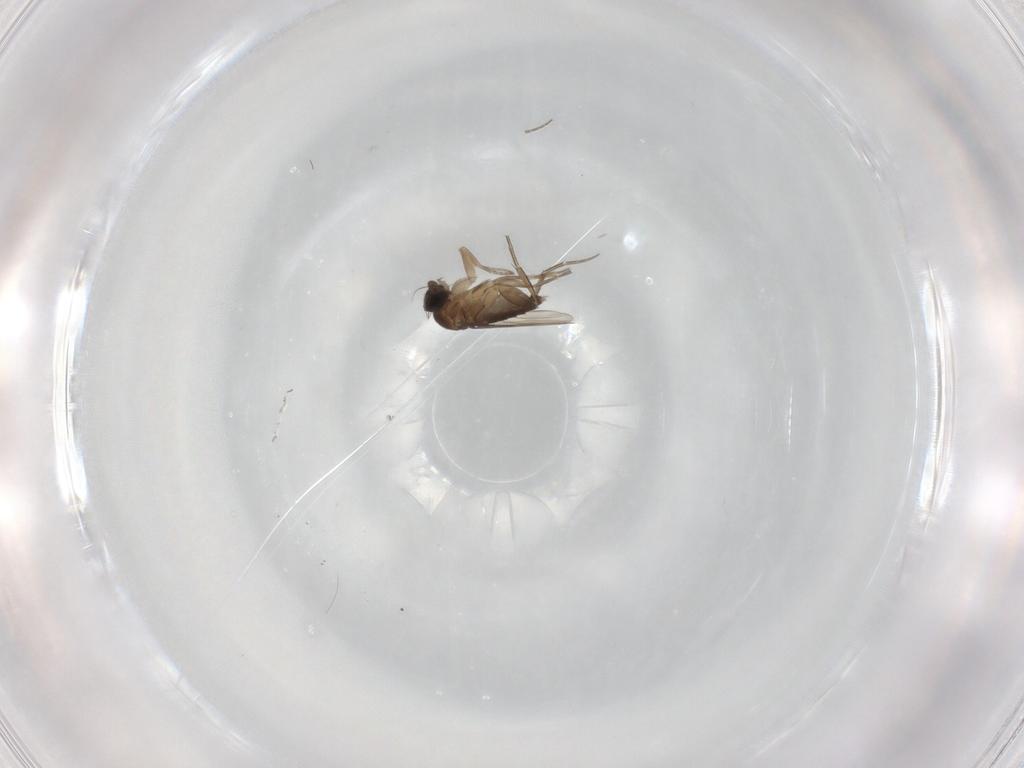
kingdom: Animalia
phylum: Arthropoda
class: Insecta
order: Diptera
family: Phoridae
